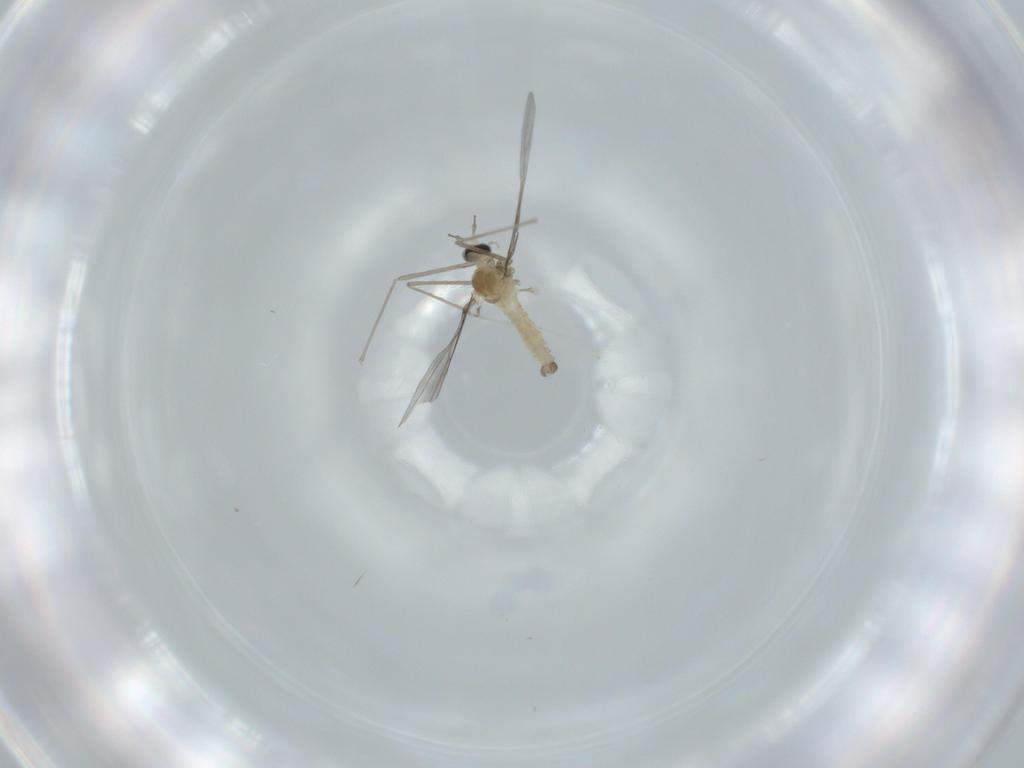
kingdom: Animalia
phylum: Arthropoda
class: Insecta
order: Diptera
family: Cecidomyiidae
